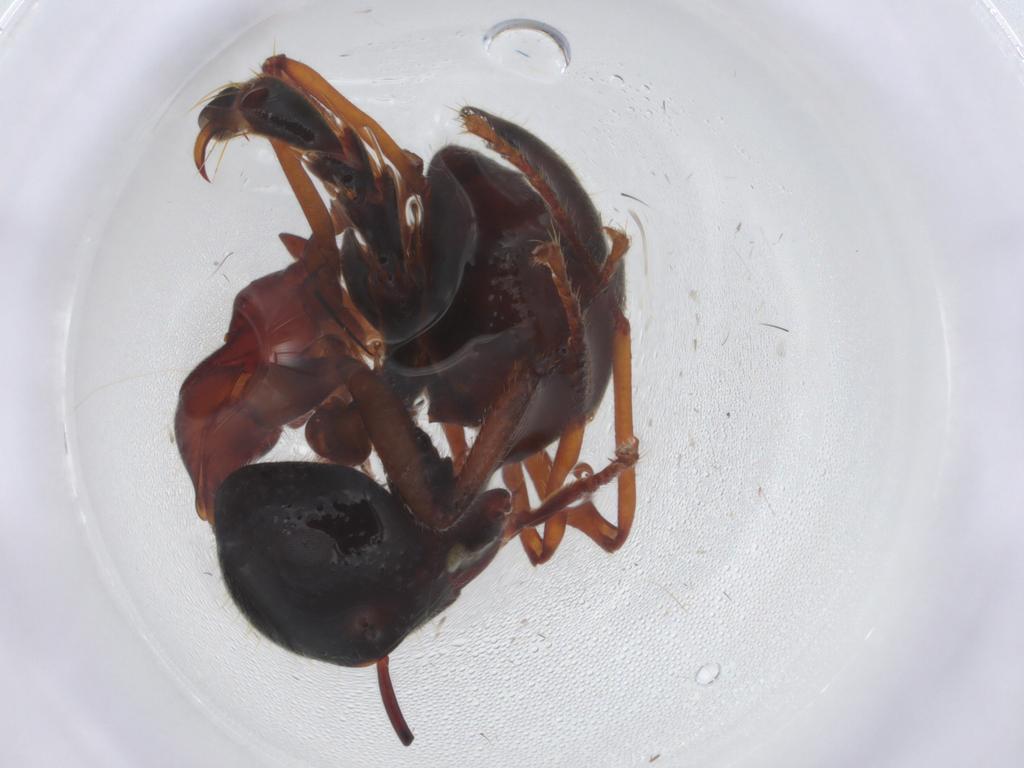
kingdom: Animalia
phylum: Arthropoda
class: Insecta
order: Hymenoptera
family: Crabronidae
